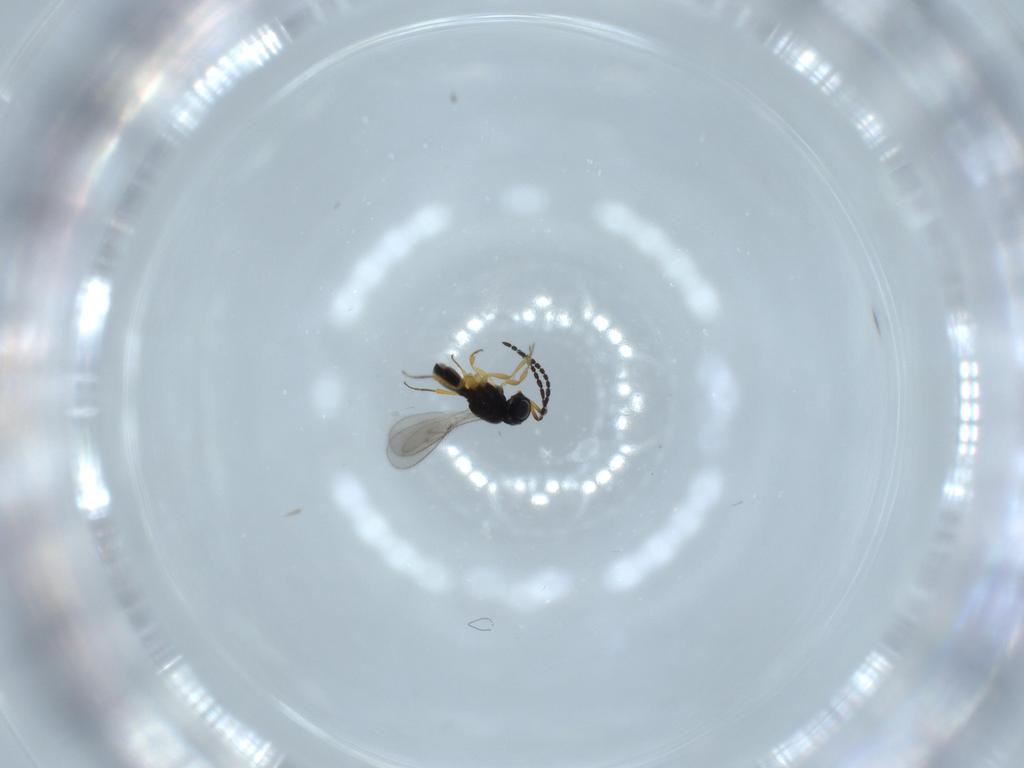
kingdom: Animalia
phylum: Arthropoda
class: Insecta
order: Hymenoptera
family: Scelionidae
